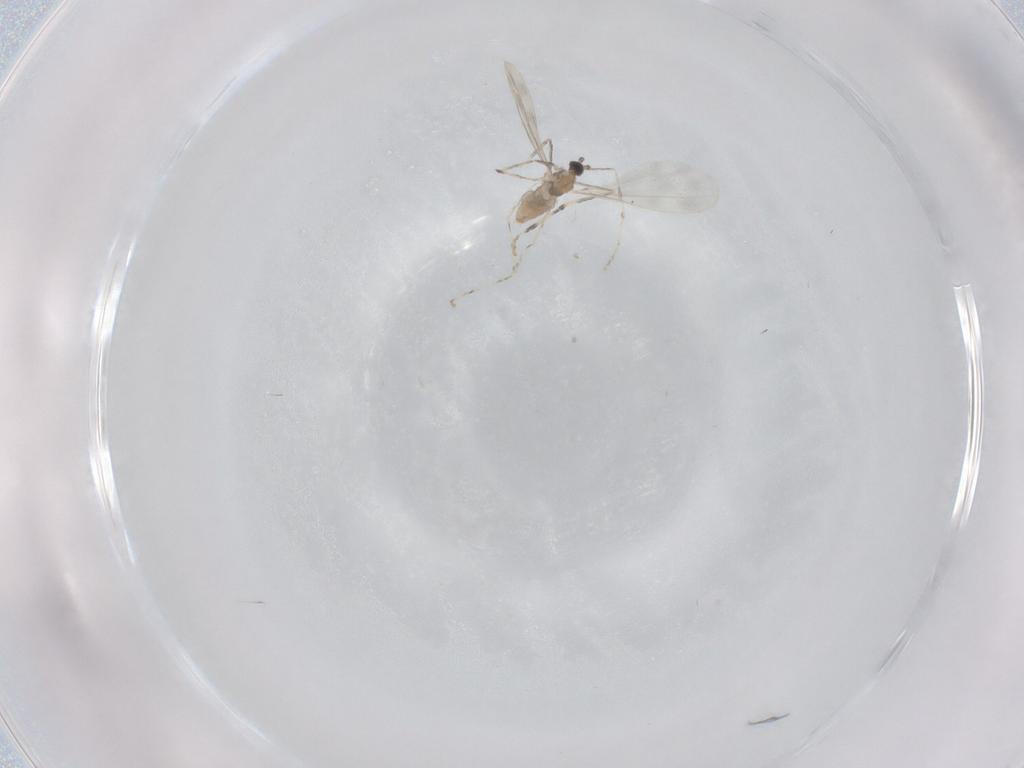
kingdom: Animalia
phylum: Arthropoda
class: Insecta
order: Diptera
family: Cecidomyiidae
